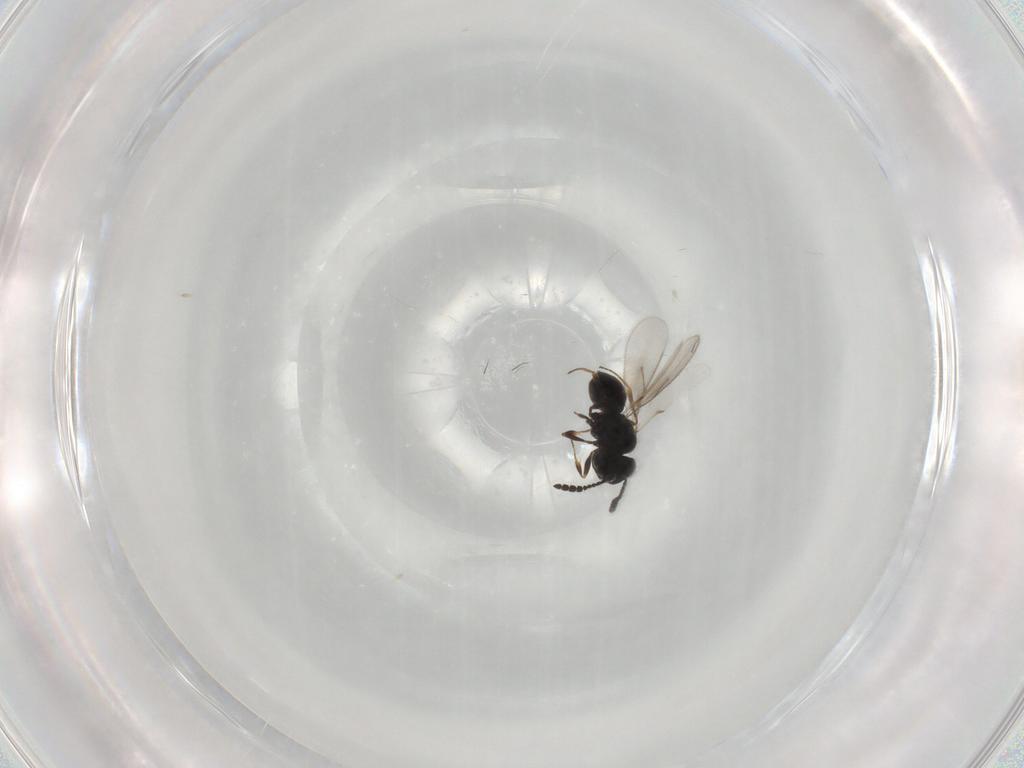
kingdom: Animalia
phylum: Arthropoda
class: Insecta
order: Hymenoptera
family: Scelionidae
